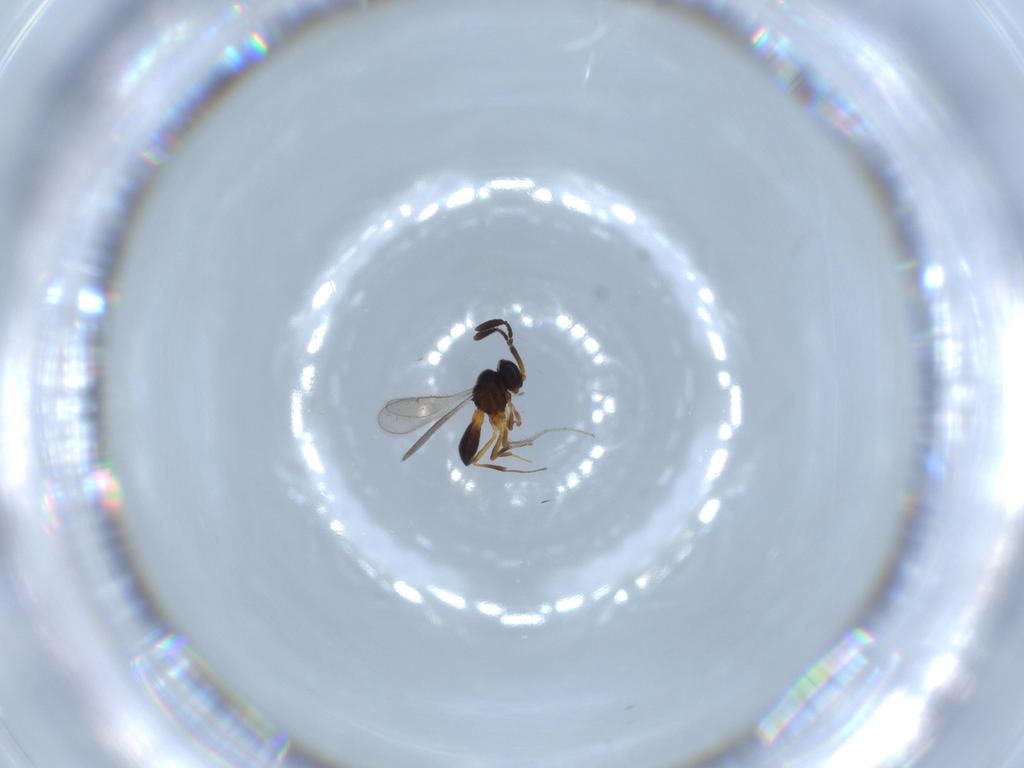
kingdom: Animalia
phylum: Arthropoda
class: Insecta
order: Hymenoptera
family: Scelionidae
